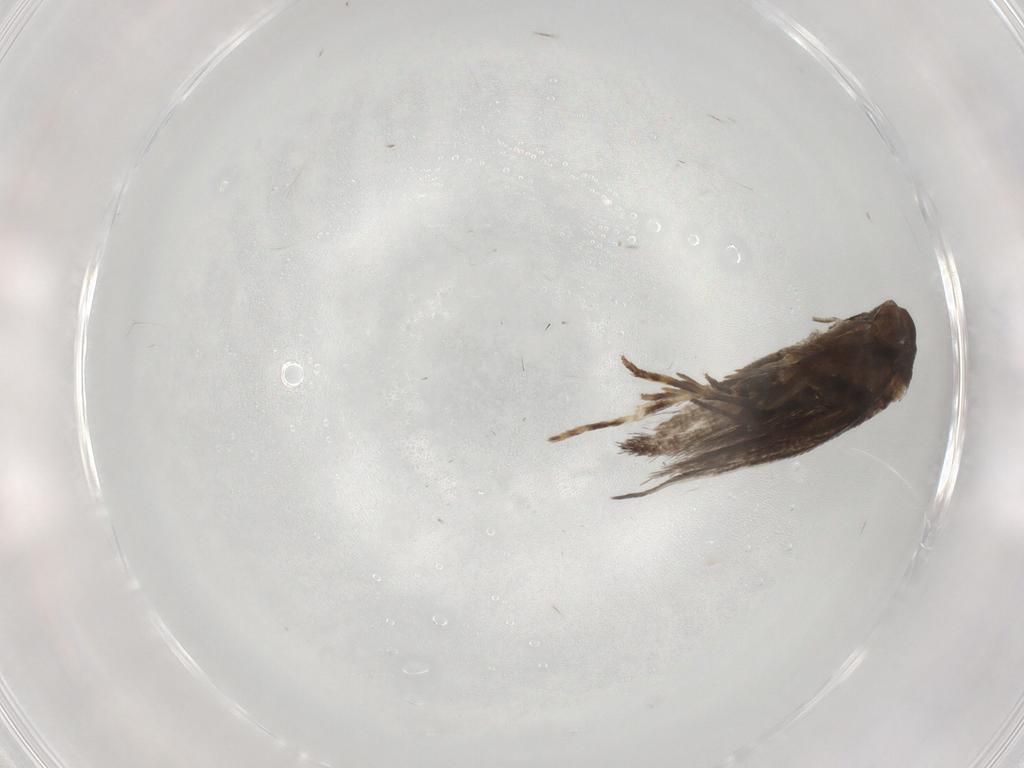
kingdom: Animalia
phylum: Arthropoda
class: Insecta
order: Lepidoptera
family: Elachistidae
